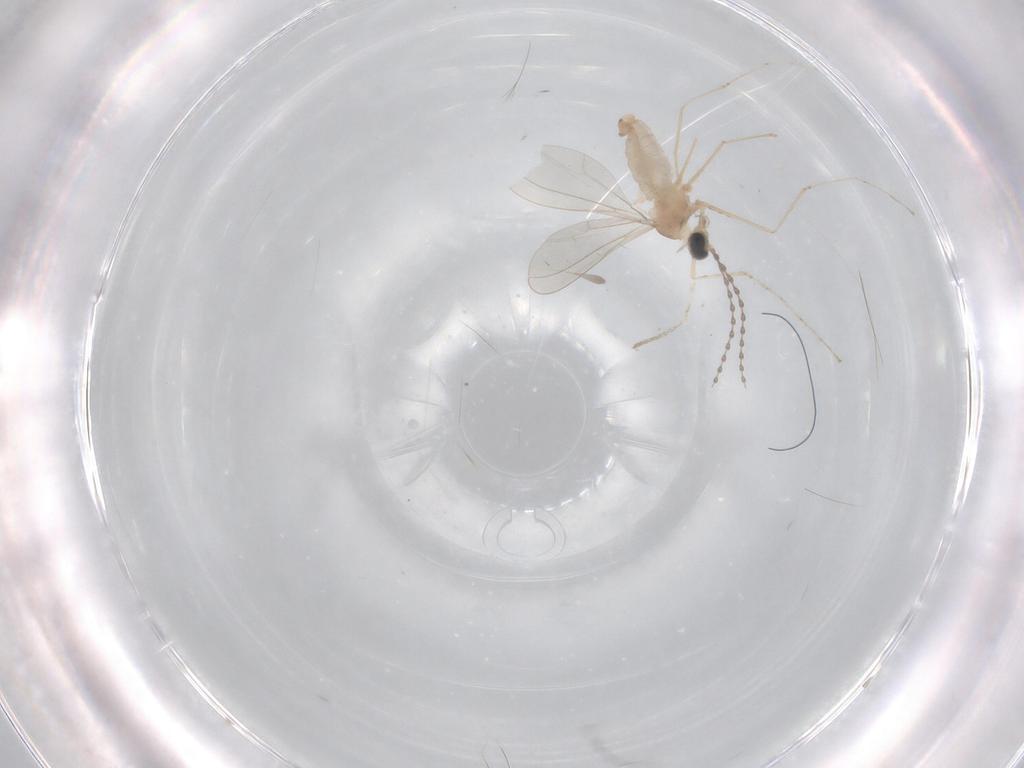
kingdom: Animalia
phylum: Arthropoda
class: Insecta
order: Diptera
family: Cecidomyiidae
